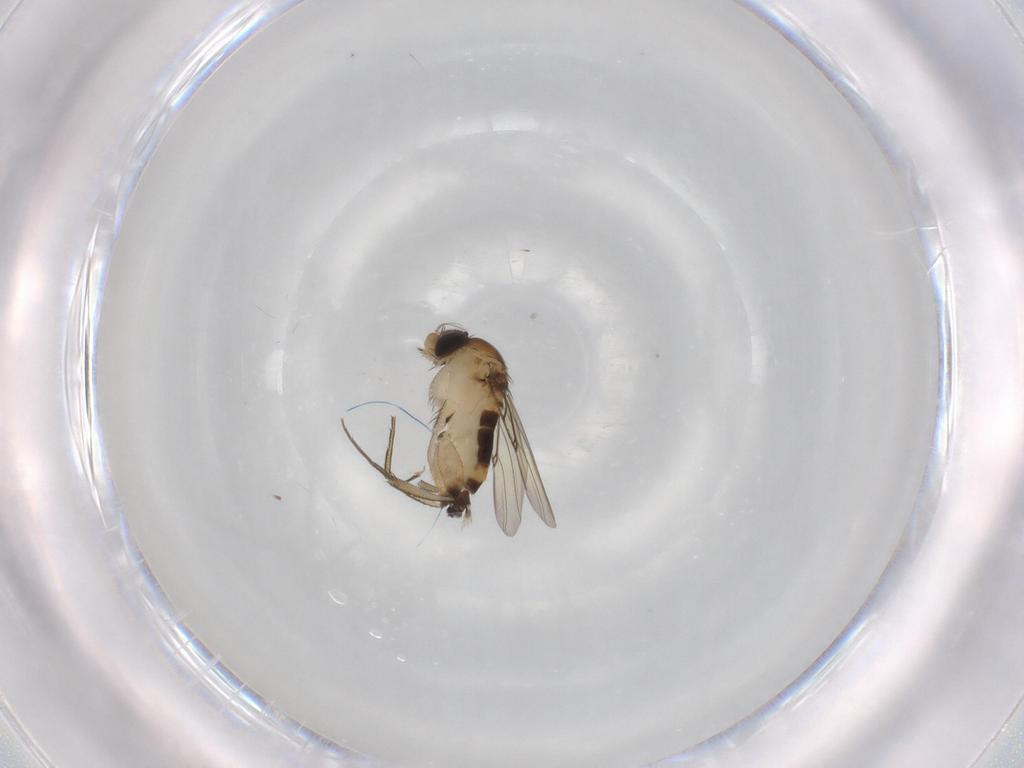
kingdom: Animalia
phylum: Arthropoda
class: Insecta
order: Diptera
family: Phoridae
